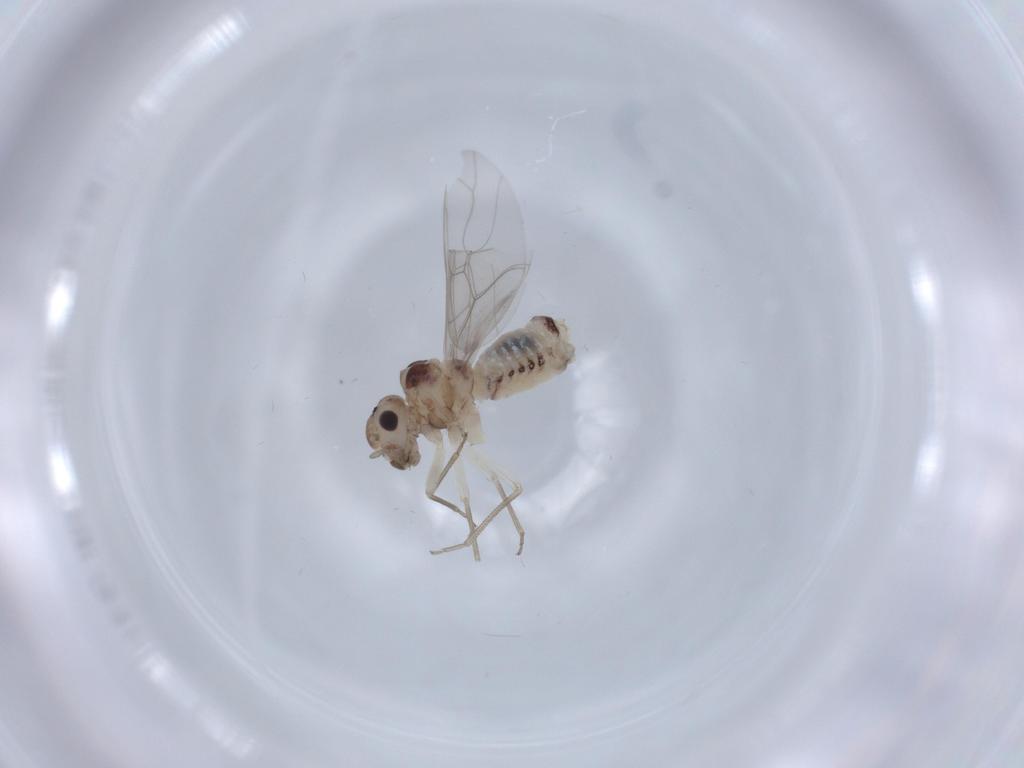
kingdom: Animalia
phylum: Arthropoda
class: Insecta
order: Psocodea
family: Peripsocidae
